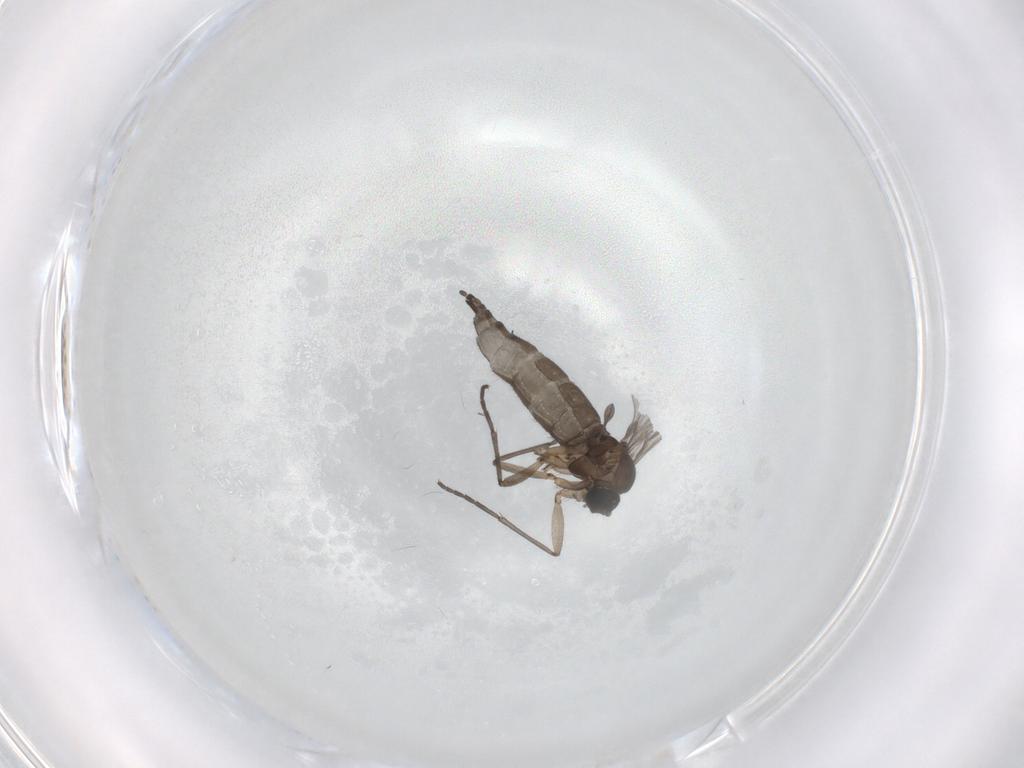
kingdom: Animalia
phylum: Arthropoda
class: Insecta
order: Diptera
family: Sciaridae
